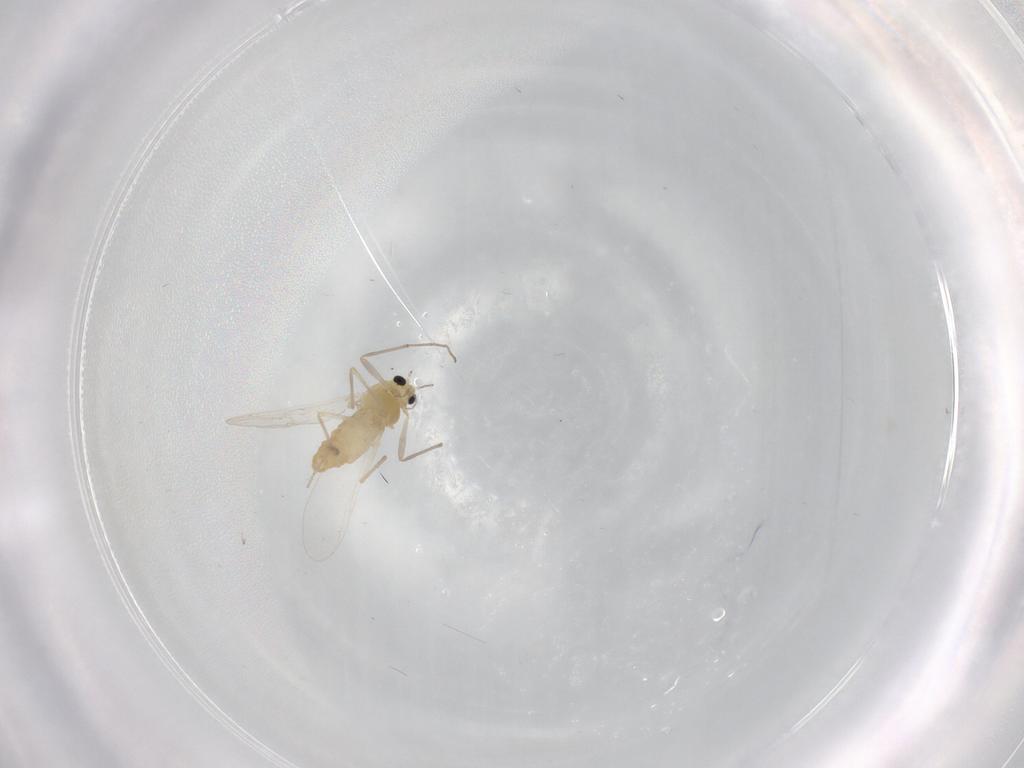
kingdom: Animalia
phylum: Arthropoda
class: Insecta
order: Diptera
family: Chironomidae
